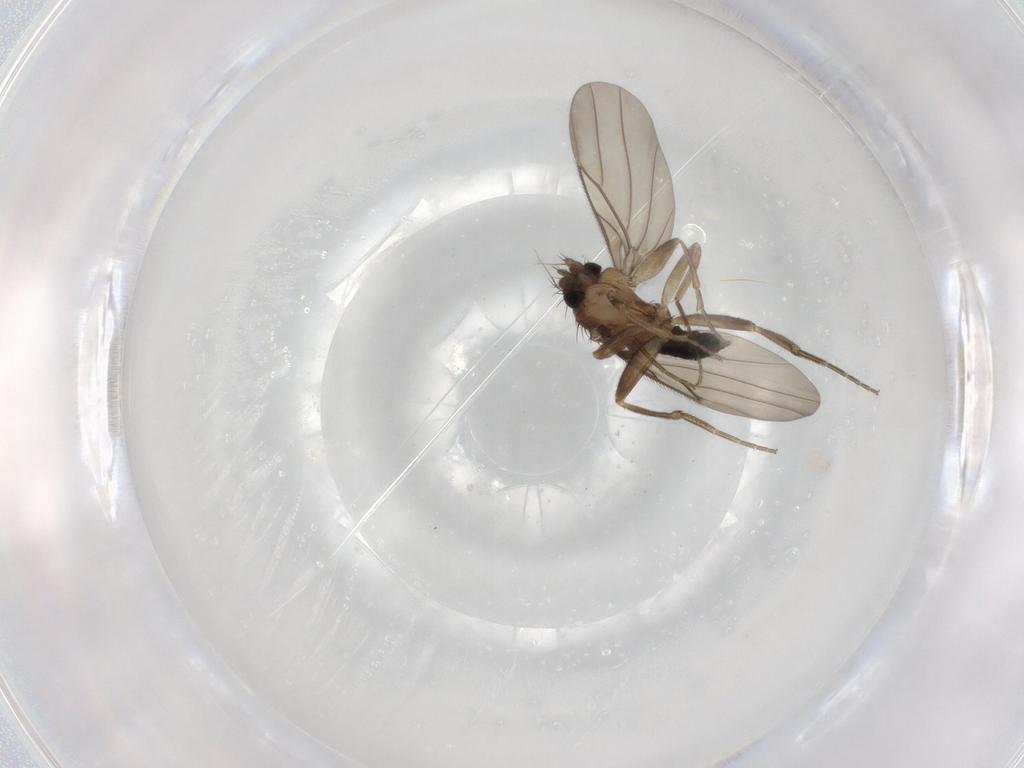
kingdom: Animalia
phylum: Arthropoda
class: Insecta
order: Diptera
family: Phoridae
